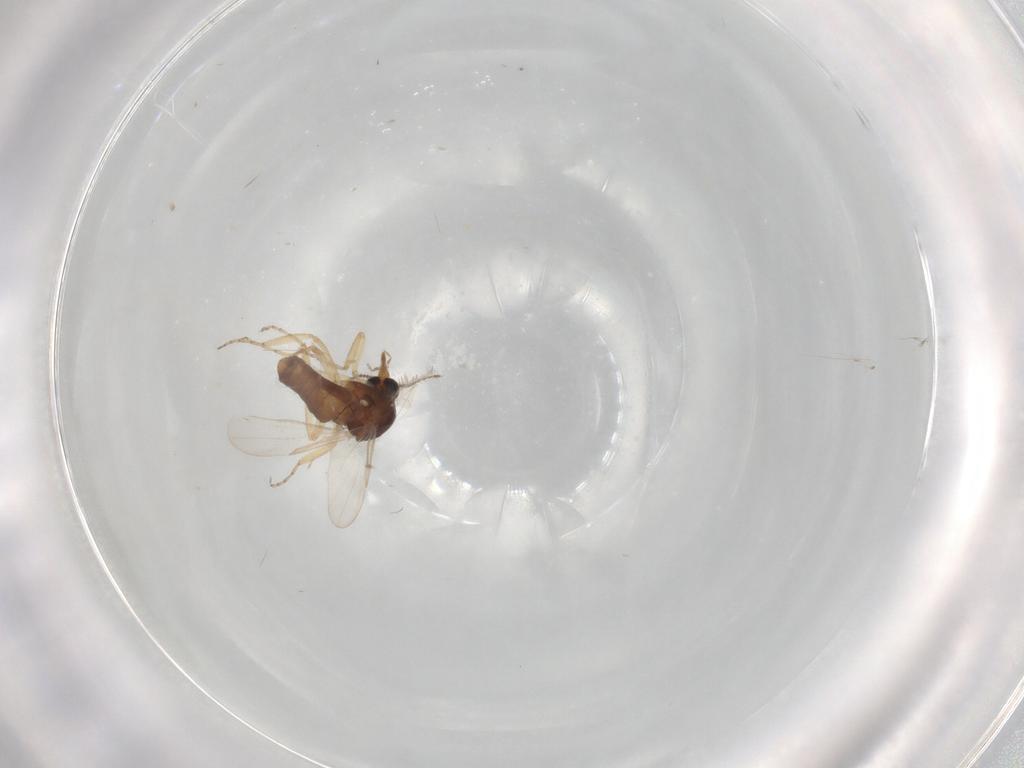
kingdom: Animalia
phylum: Arthropoda
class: Insecta
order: Diptera
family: Ceratopogonidae
